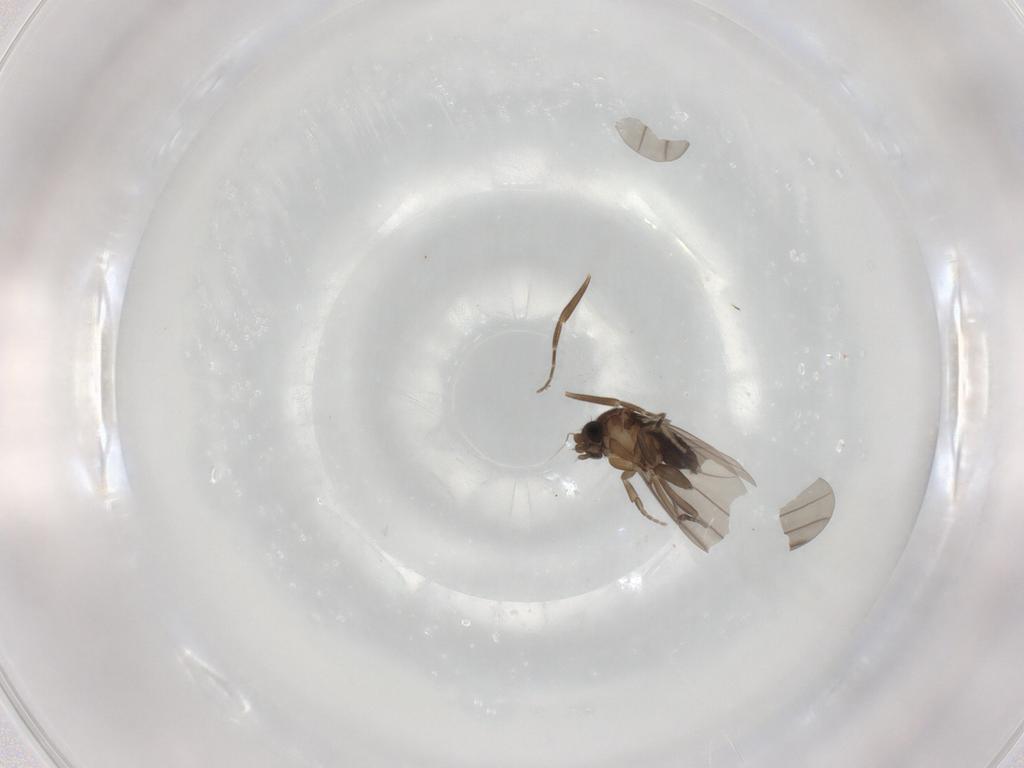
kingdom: Animalia
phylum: Arthropoda
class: Insecta
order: Diptera
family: Phoridae
